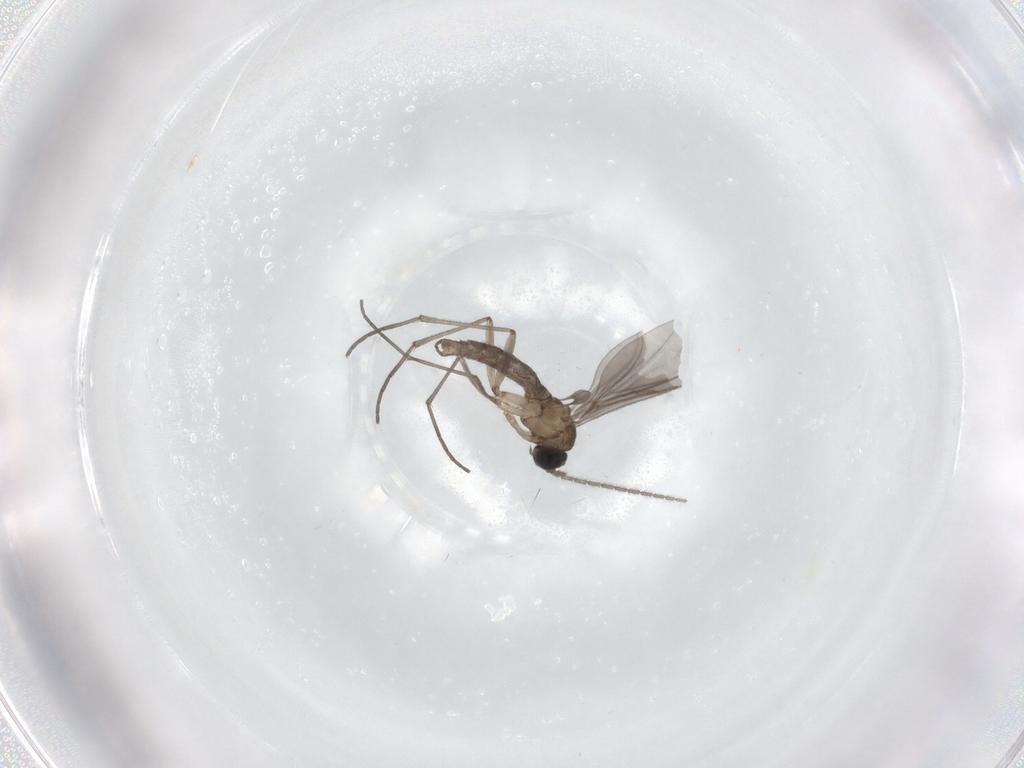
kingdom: Animalia
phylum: Arthropoda
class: Insecta
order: Diptera
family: Sciaridae
